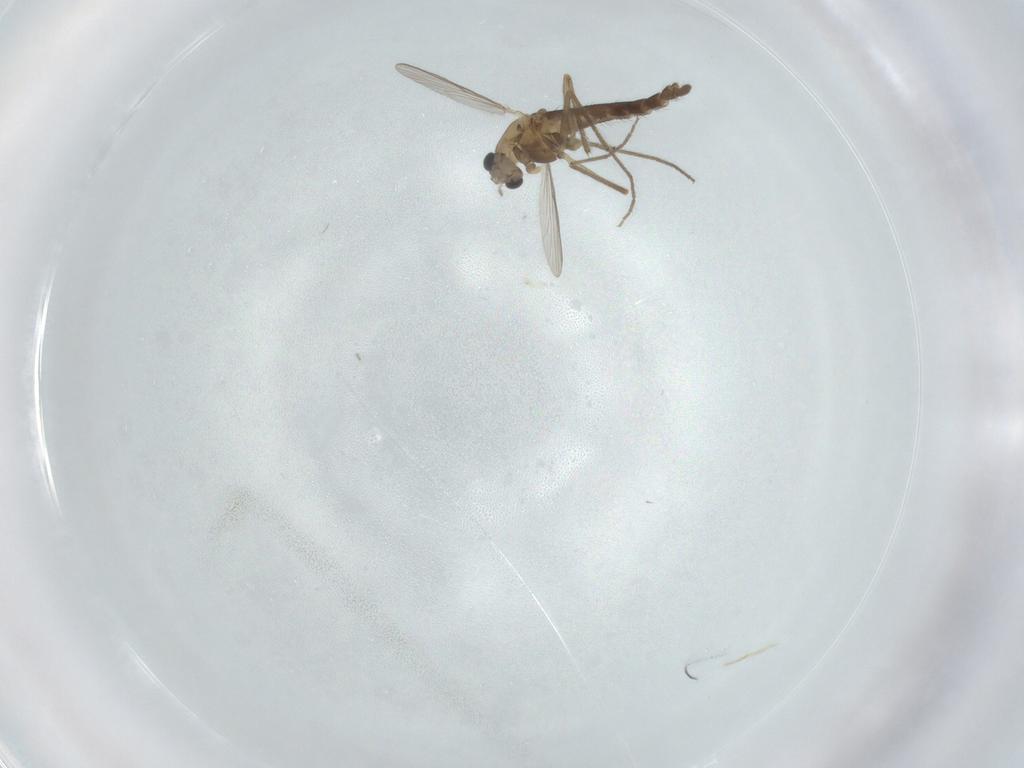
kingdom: Animalia
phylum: Arthropoda
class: Insecta
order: Diptera
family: Chironomidae
